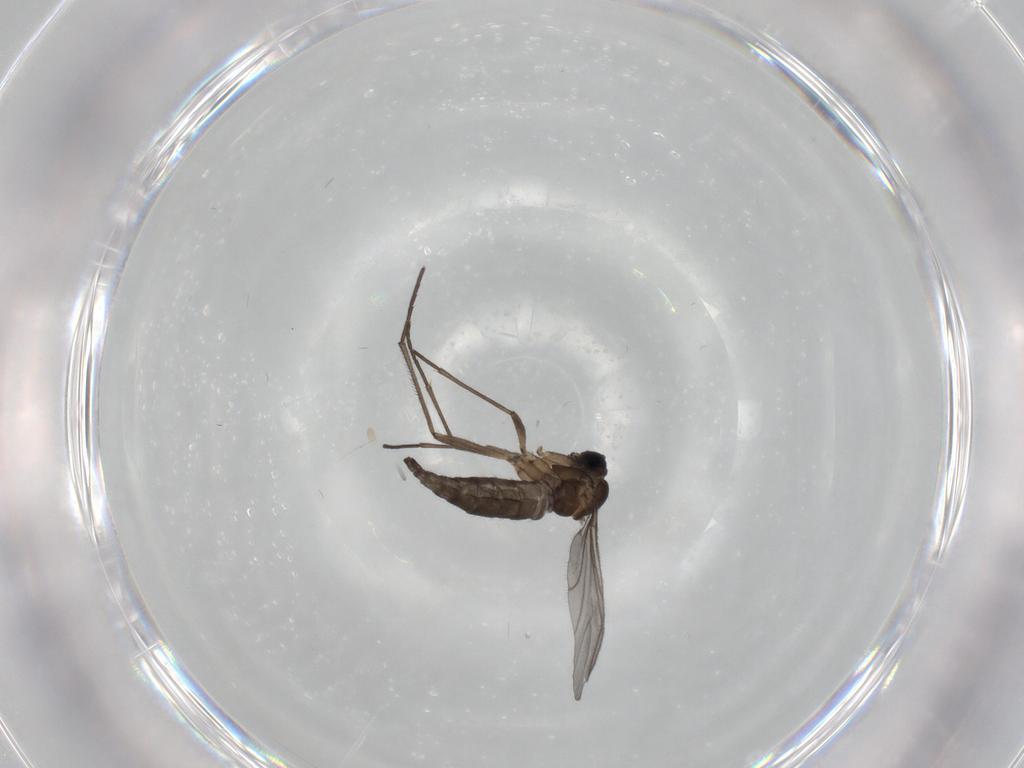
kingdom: Animalia
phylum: Arthropoda
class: Insecta
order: Diptera
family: Sciaridae
